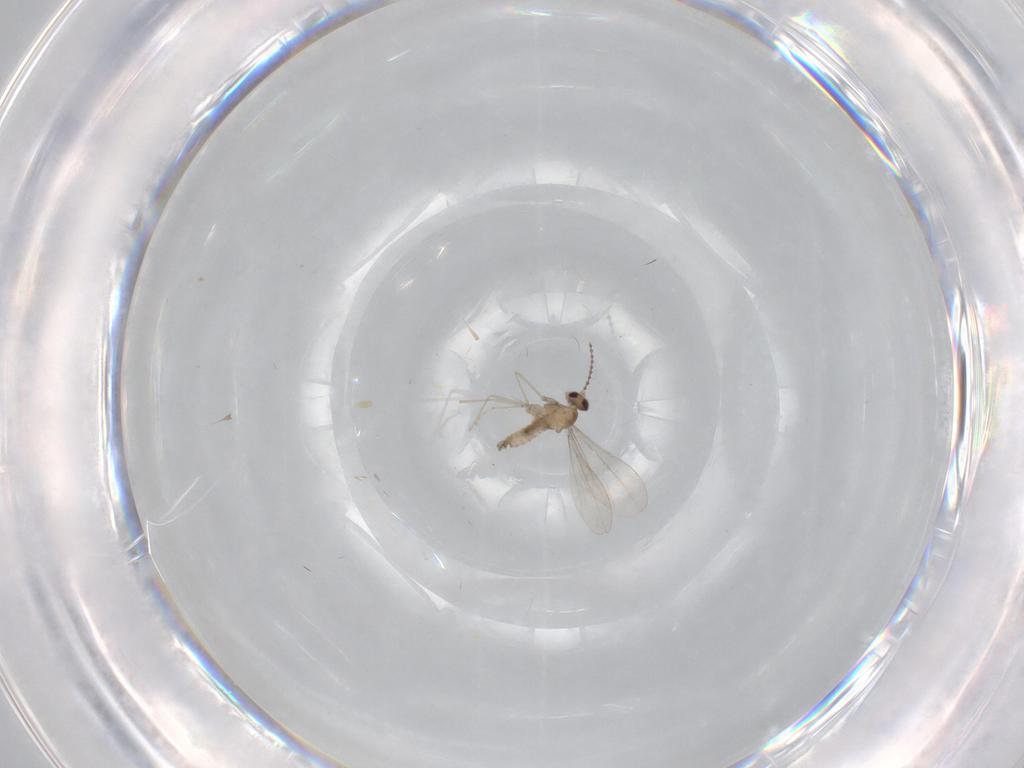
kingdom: Animalia
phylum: Arthropoda
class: Insecta
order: Diptera
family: Cecidomyiidae
